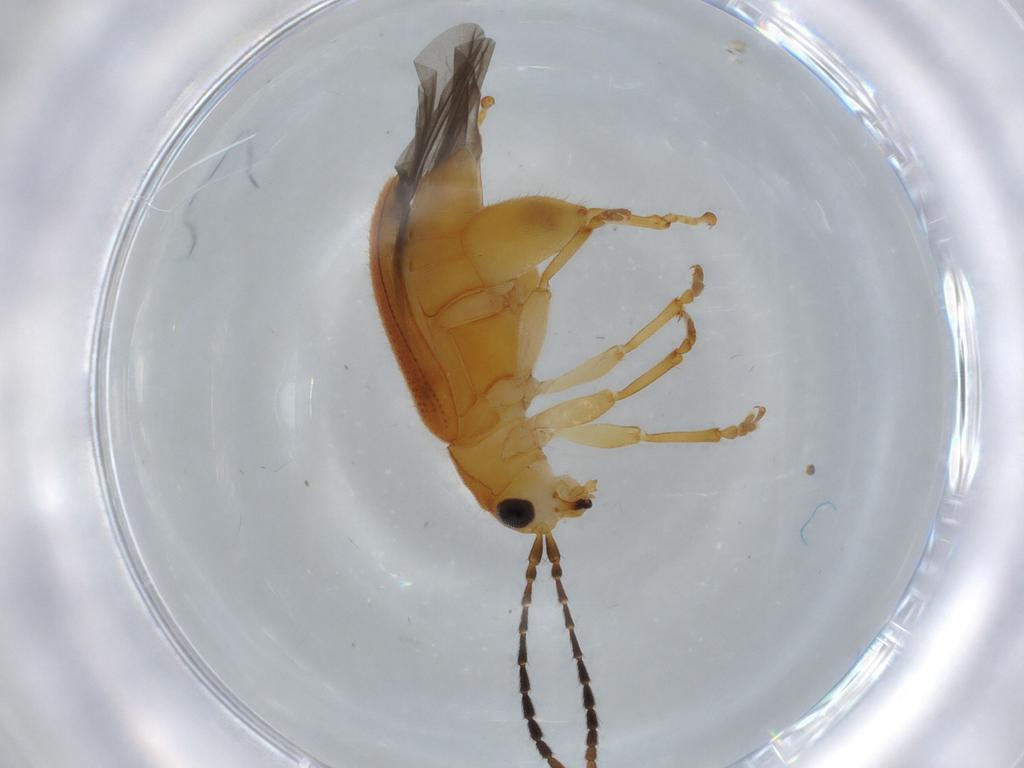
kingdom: Animalia
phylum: Arthropoda
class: Insecta
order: Coleoptera
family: Chrysomelidae
